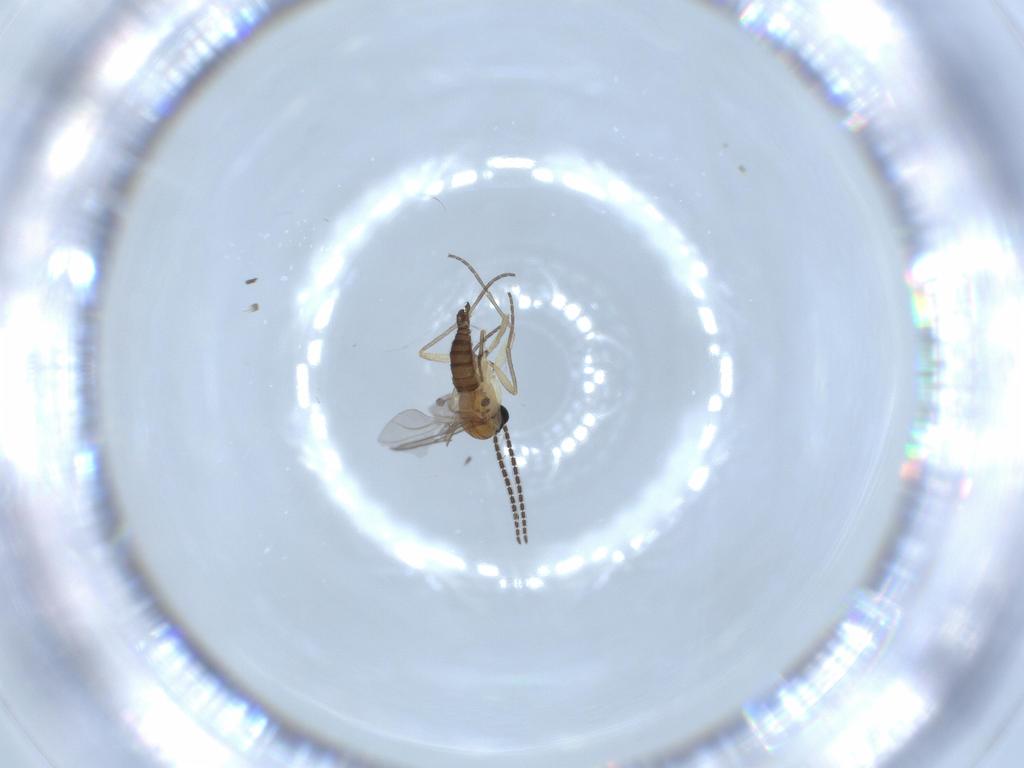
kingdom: Animalia
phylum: Arthropoda
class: Insecta
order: Diptera
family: Sciaridae
